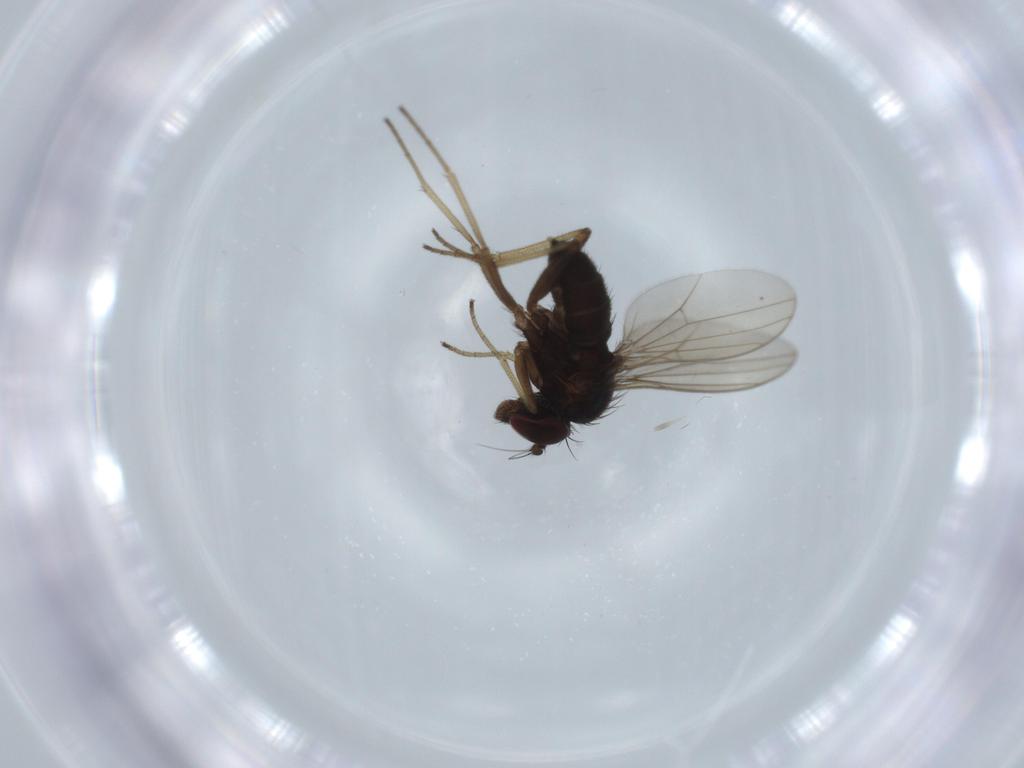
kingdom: Animalia
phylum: Arthropoda
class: Insecta
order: Diptera
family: Dolichopodidae
